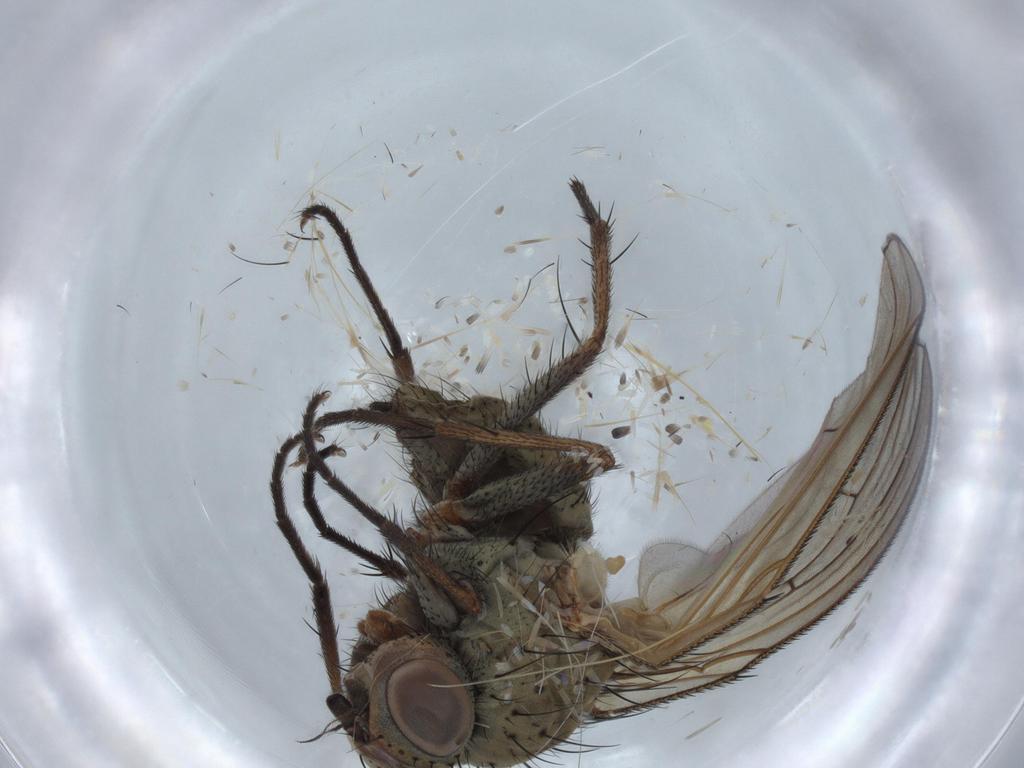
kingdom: Animalia
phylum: Arthropoda
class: Insecta
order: Diptera
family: Anthomyiidae
